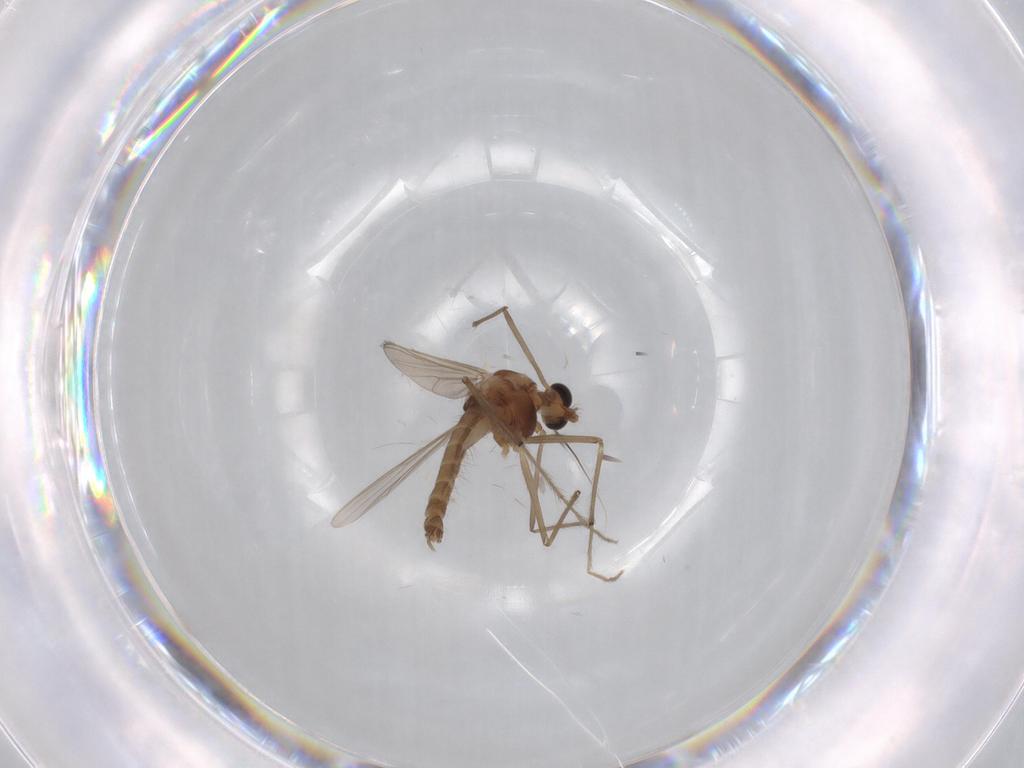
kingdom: Animalia
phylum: Arthropoda
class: Insecta
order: Diptera
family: Chironomidae
